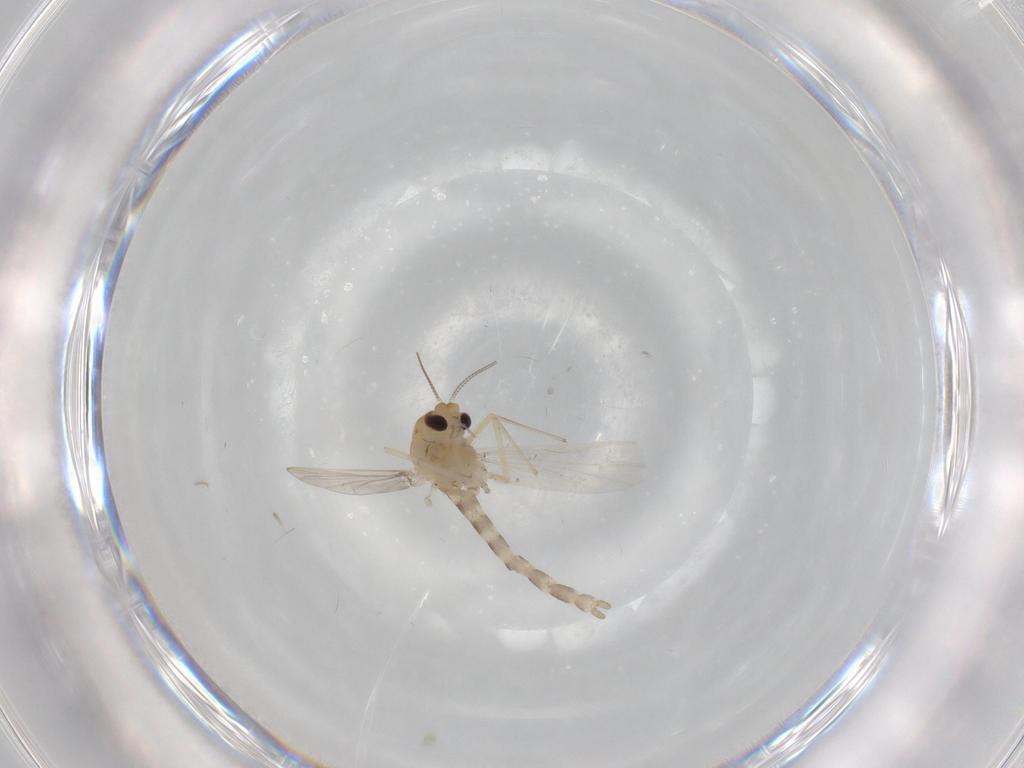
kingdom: Animalia
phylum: Arthropoda
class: Insecta
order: Diptera
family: Chironomidae
